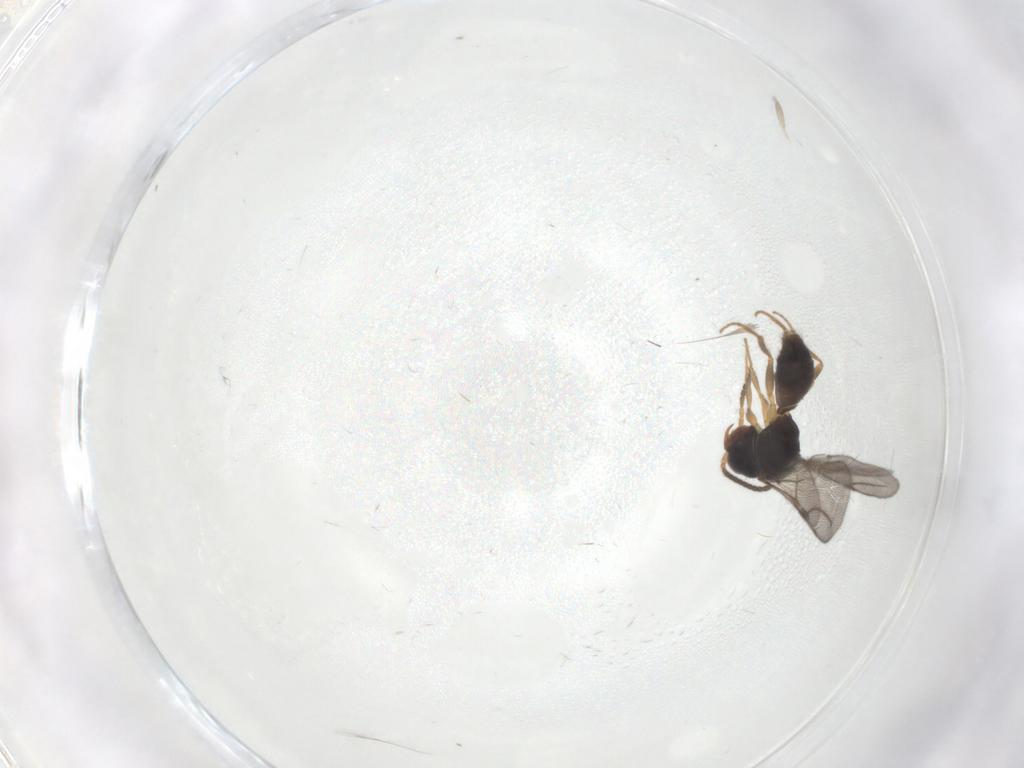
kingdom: Animalia
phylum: Arthropoda
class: Insecta
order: Hymenoptera
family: Bethylidae
